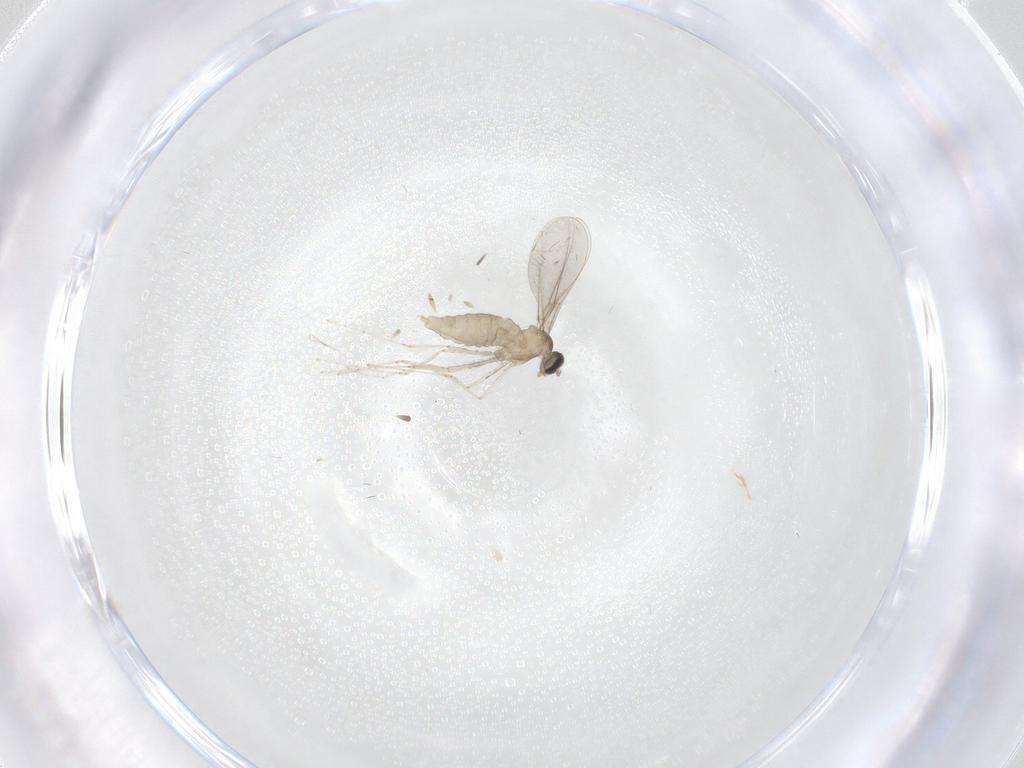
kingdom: Animalia
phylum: Arthropoda
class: Insecta
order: Diptera
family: Cecidomyiidae
